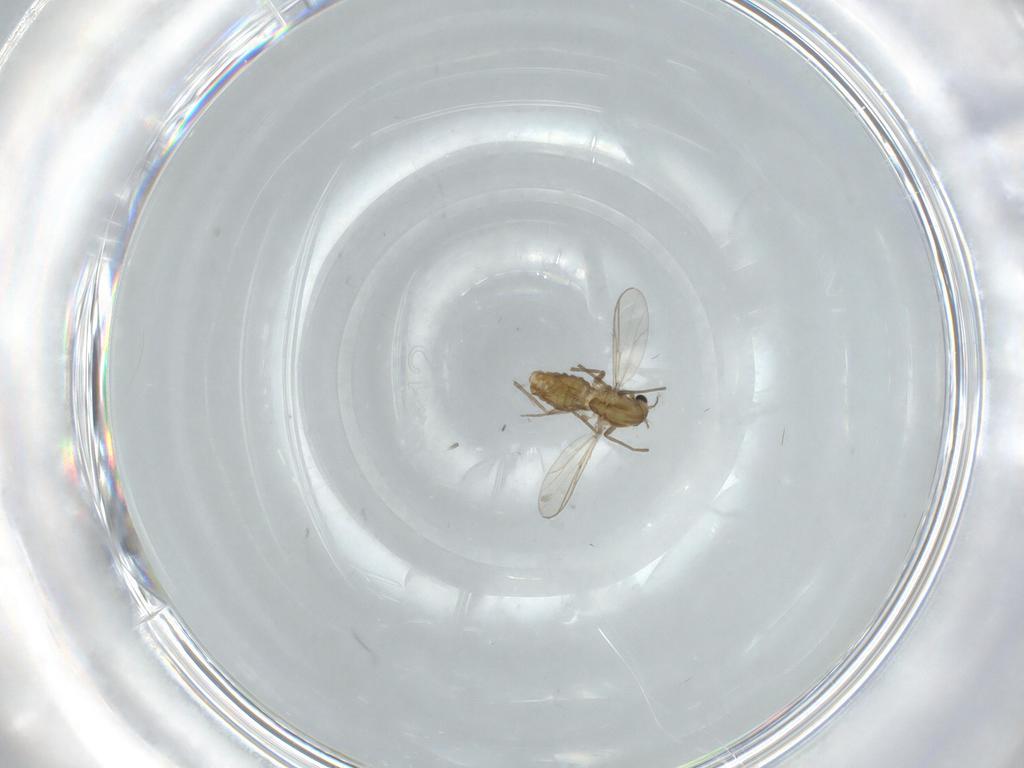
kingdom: Animalia
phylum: Arthropoda
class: Insecta
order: Diptera
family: Chironomidae
